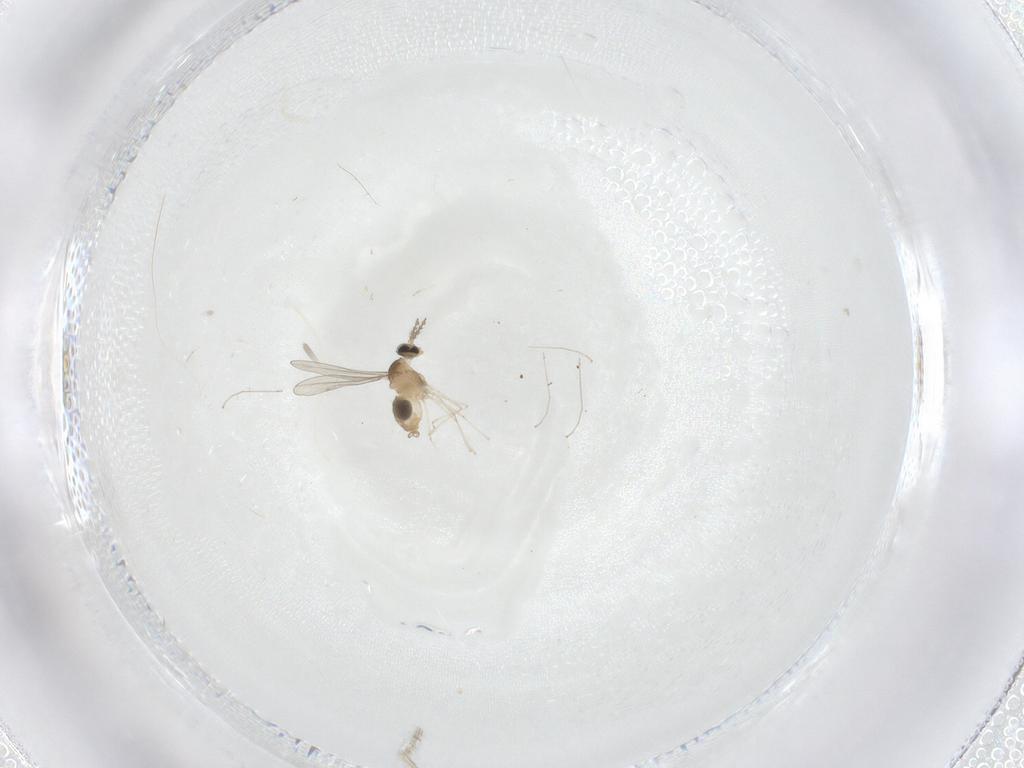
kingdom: Animalia
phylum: Arthropoda
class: Insecta
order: Diptera
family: Cecidomyiidae
